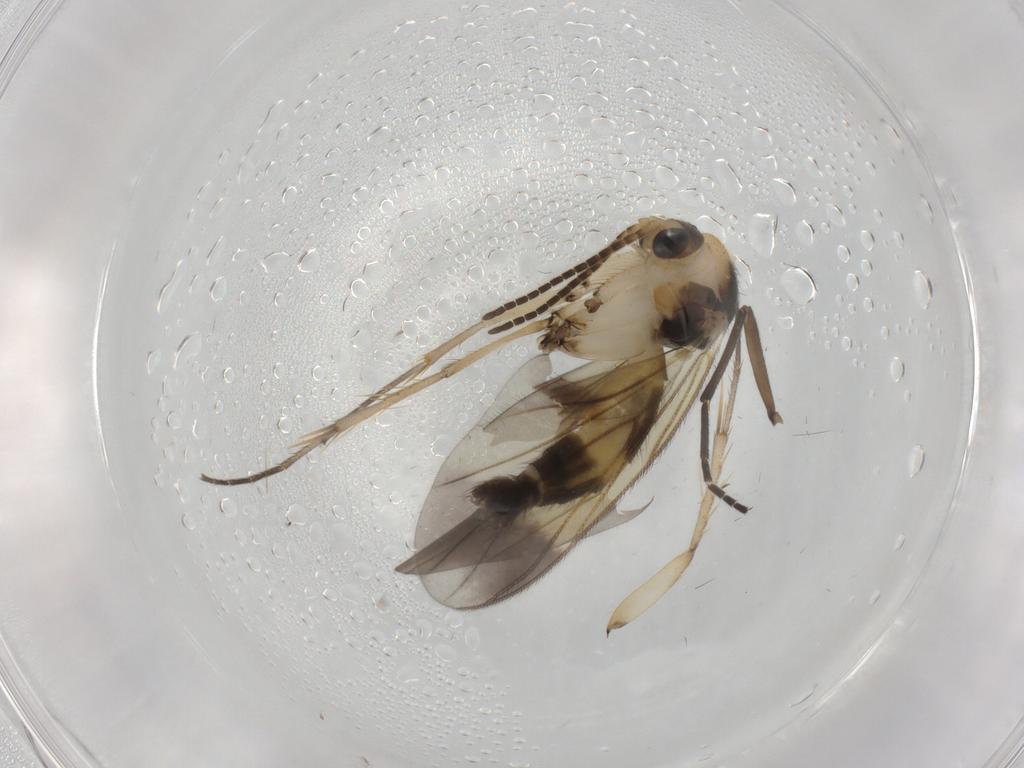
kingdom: Animalia
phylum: Arthropoda
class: Insecta
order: Diptera
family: Mycetophilidae
